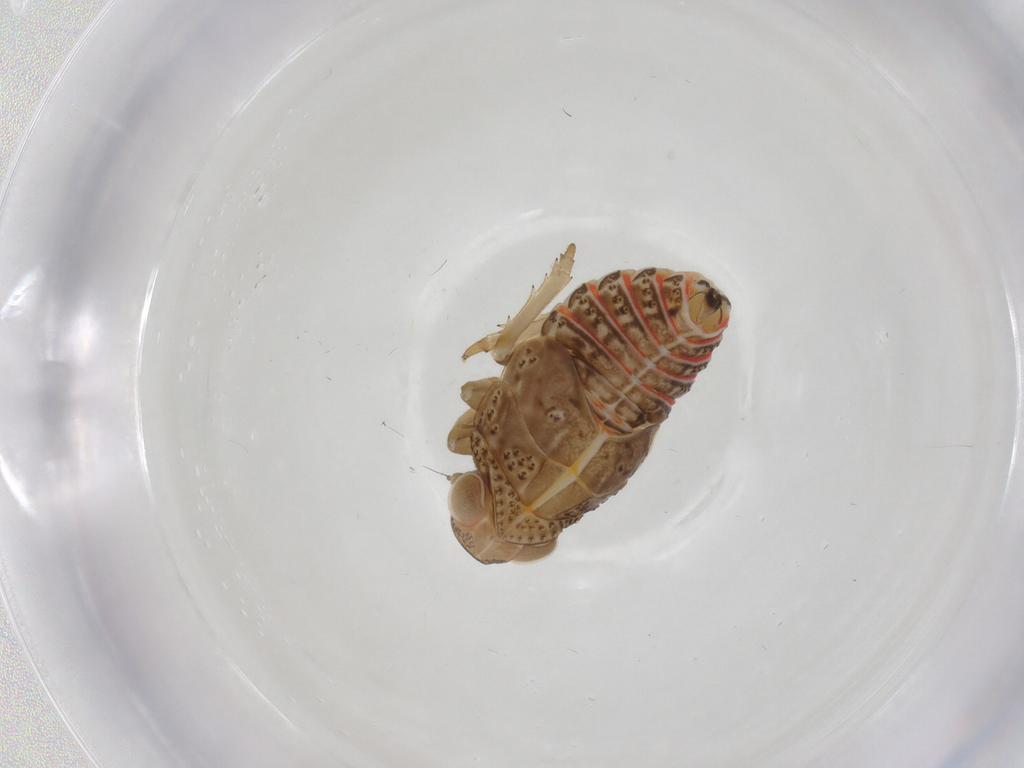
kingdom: Animalia
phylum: Arthropoda
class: Insecta
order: Hemiptera
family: Issidae
